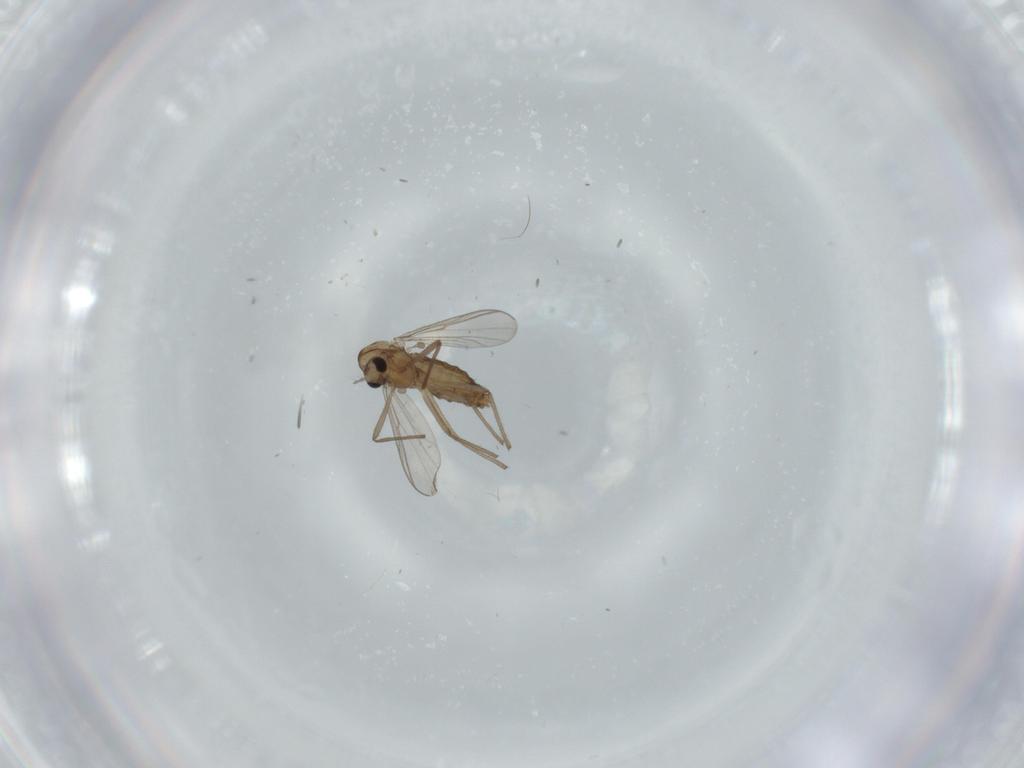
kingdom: Animalia
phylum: Arthropoda
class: Insecta
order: Diptera
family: Chironomidae
